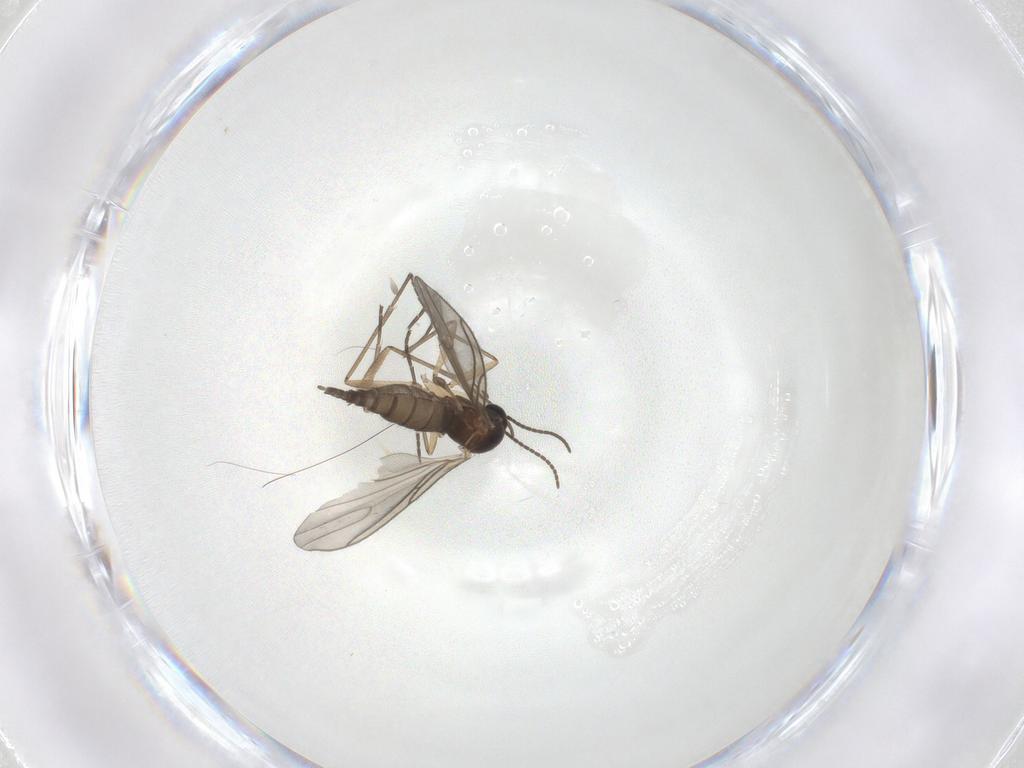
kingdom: Animalia
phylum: Arthropoda
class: Insecta
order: Diptera
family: Sciaridae
